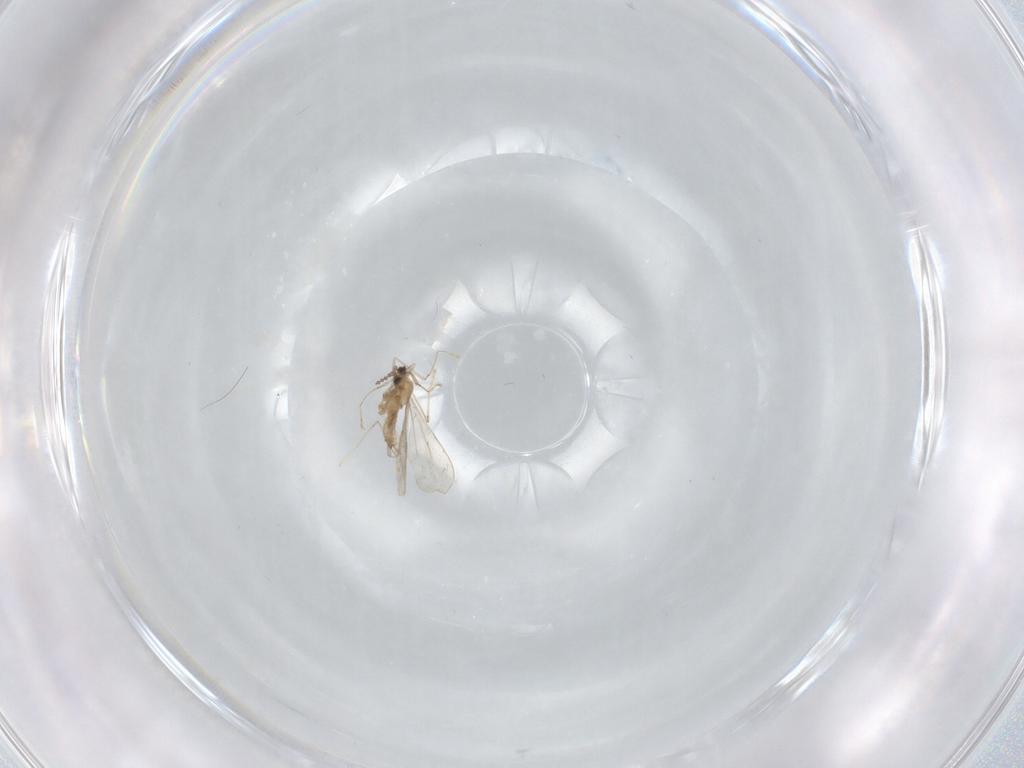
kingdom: Animalia
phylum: Arthropoda
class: Insecta
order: Diptera
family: Cecidomyiidae
